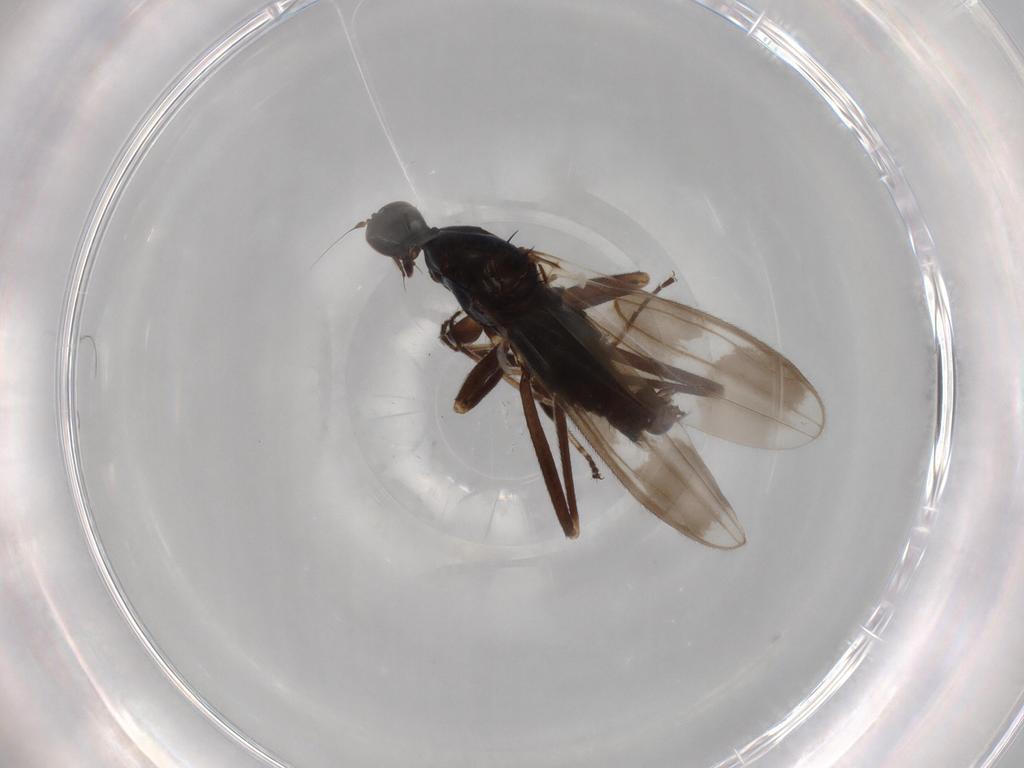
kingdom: Animalia
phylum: Arthropoda
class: Insecta
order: Diptera
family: Hybotidae
